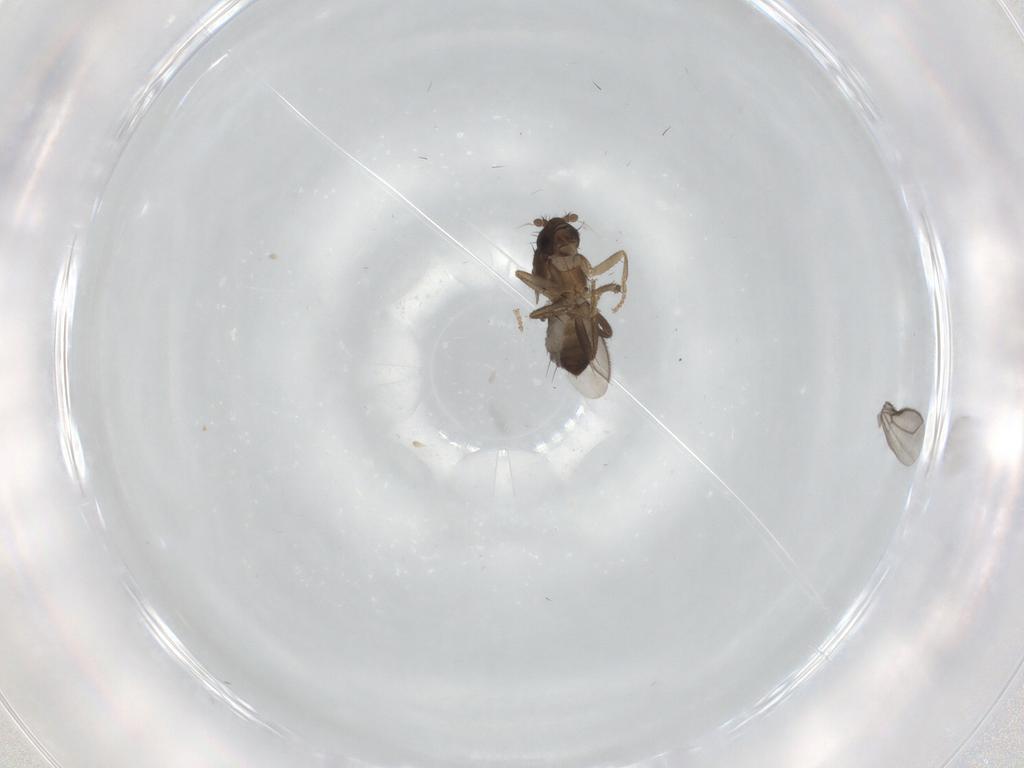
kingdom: Animalia
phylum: Arthropoda
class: Insecta
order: Diptera
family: Sphaeroceridae
